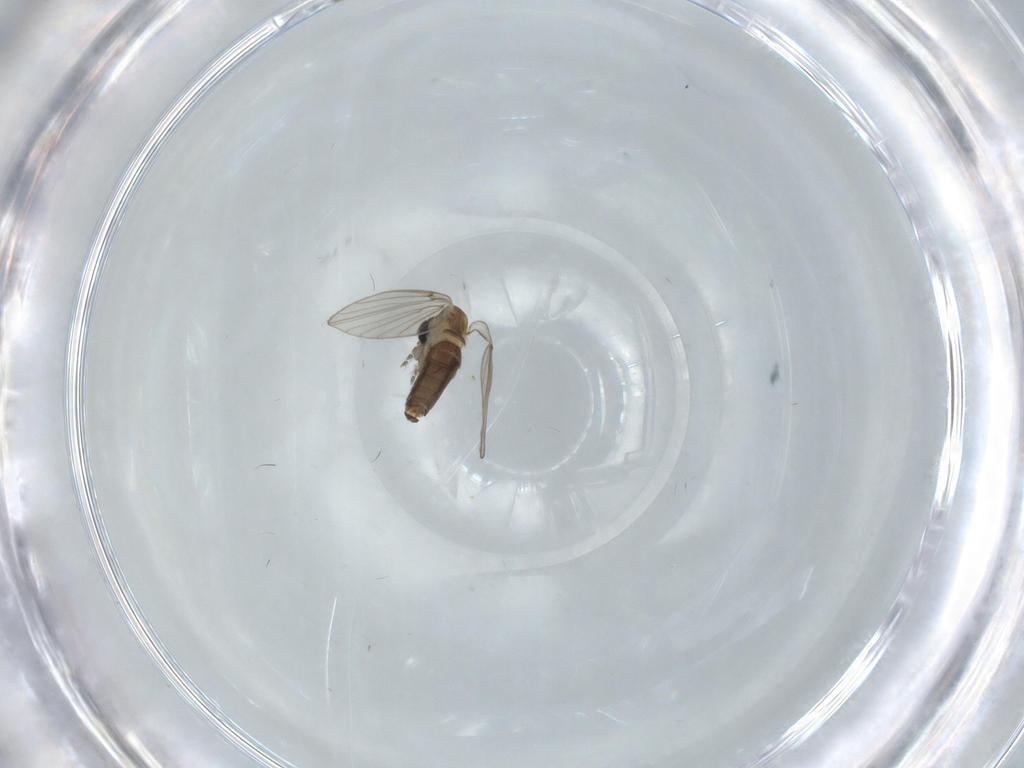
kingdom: Animalia
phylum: Arthropoda
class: Insecta
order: Diptera
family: Psychodidae
